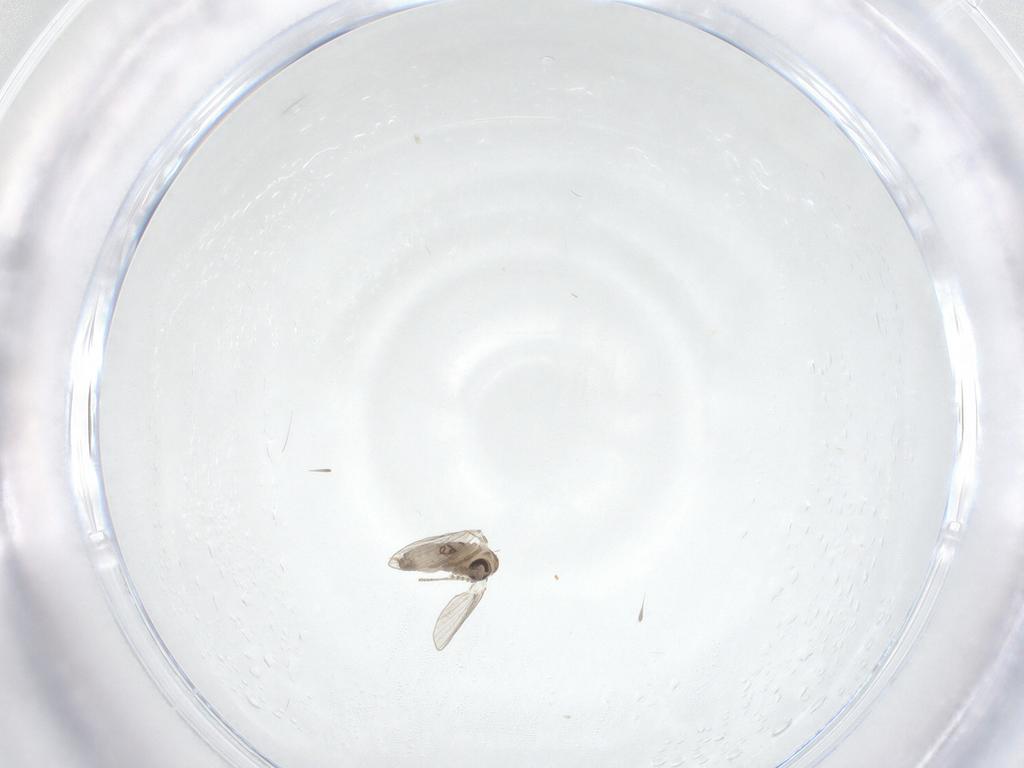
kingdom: Animalia
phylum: Arthropoda
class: Insecta
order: Diptera
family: Psychodidae
